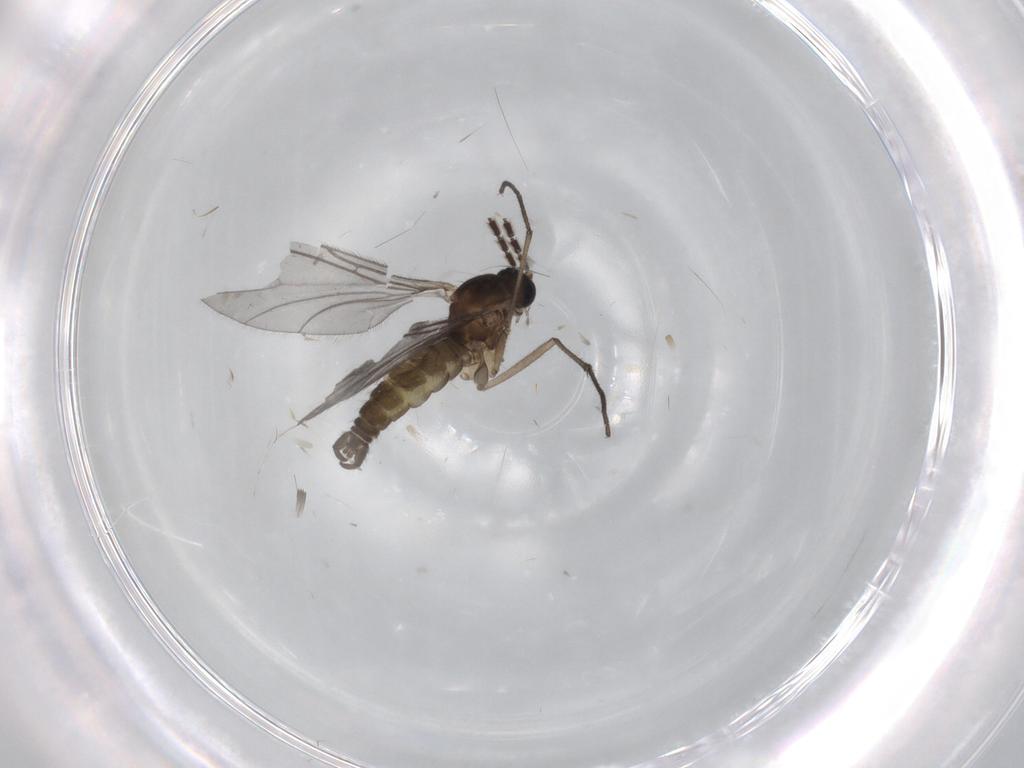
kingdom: Animalia
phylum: Arthropoda
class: Insecta
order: Diptera
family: Sciaridae
